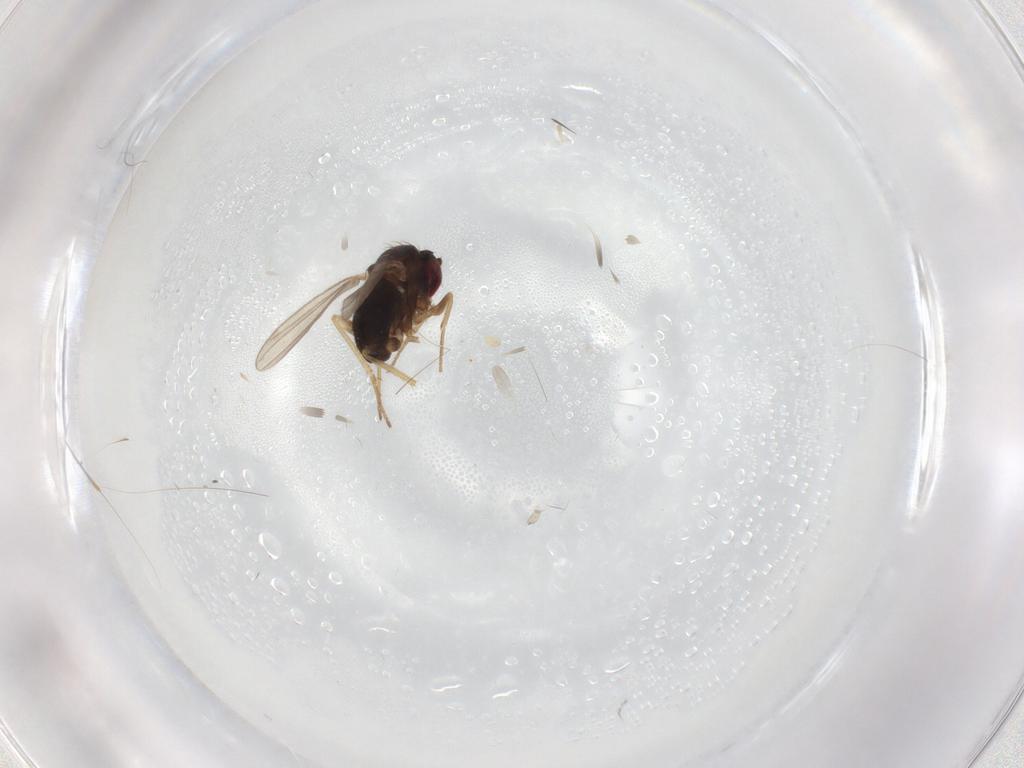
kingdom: Animalia
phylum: Arthropoda
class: Insecta
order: Diptera
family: Dolichopodidae
